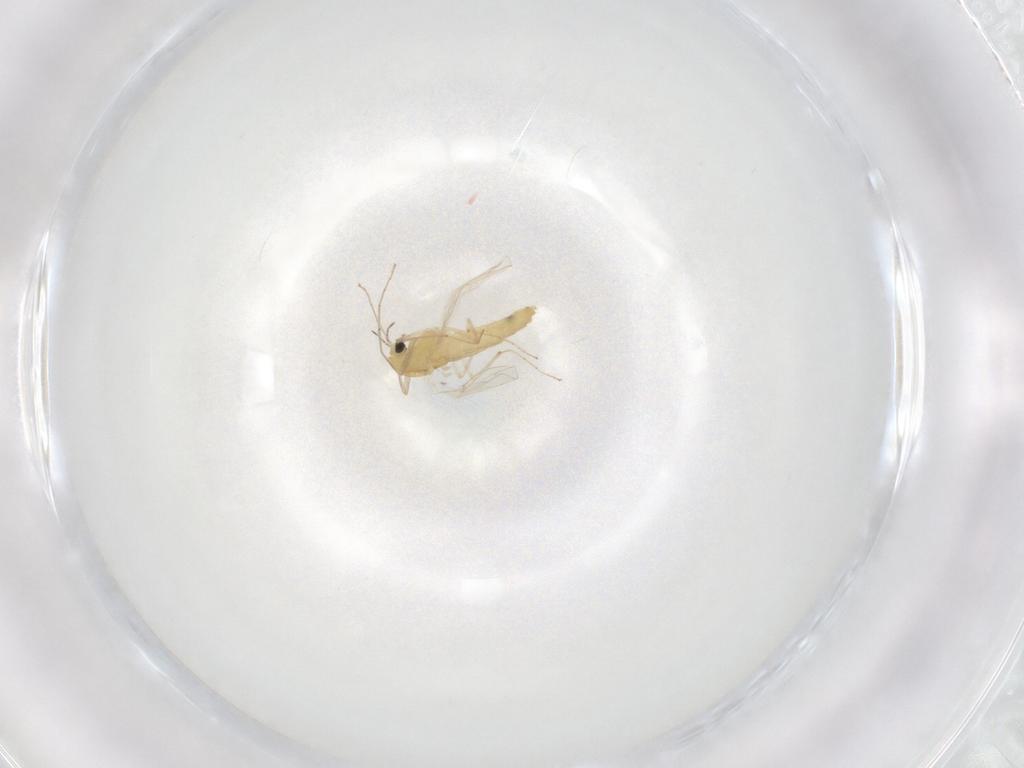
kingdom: Animalia
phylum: Arthropoda
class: Insecta
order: Diptera
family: Chironomidae
